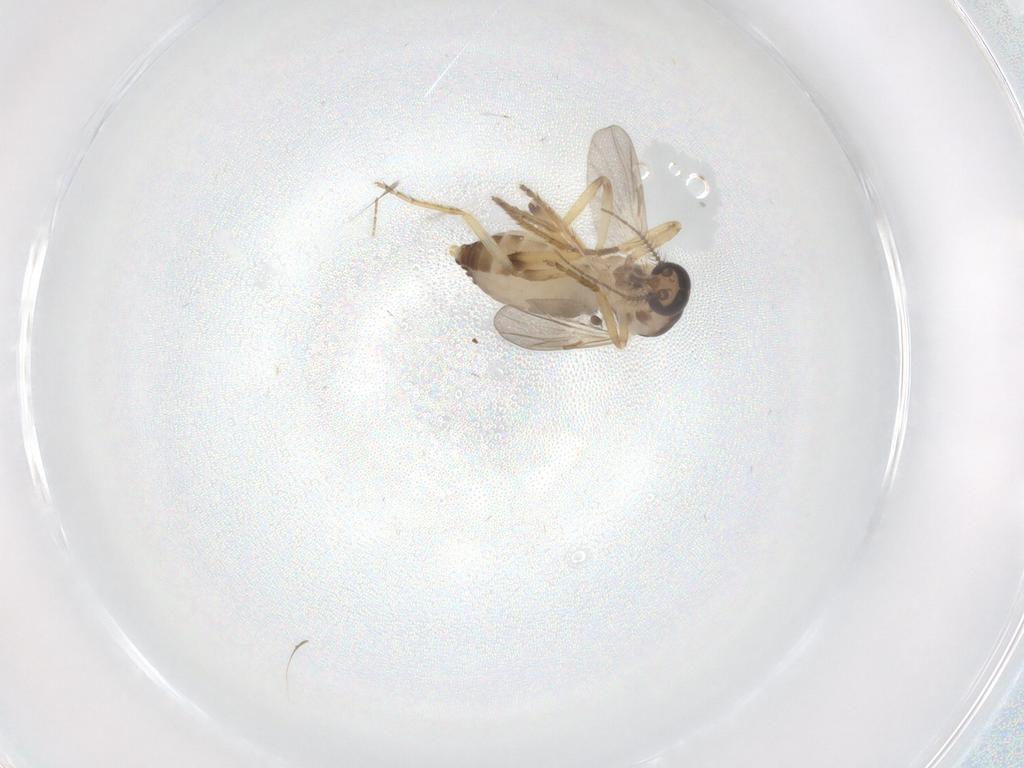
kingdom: Animalia
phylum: Arthropoda
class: Insecta
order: Diptera
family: Ceratopogonidae
